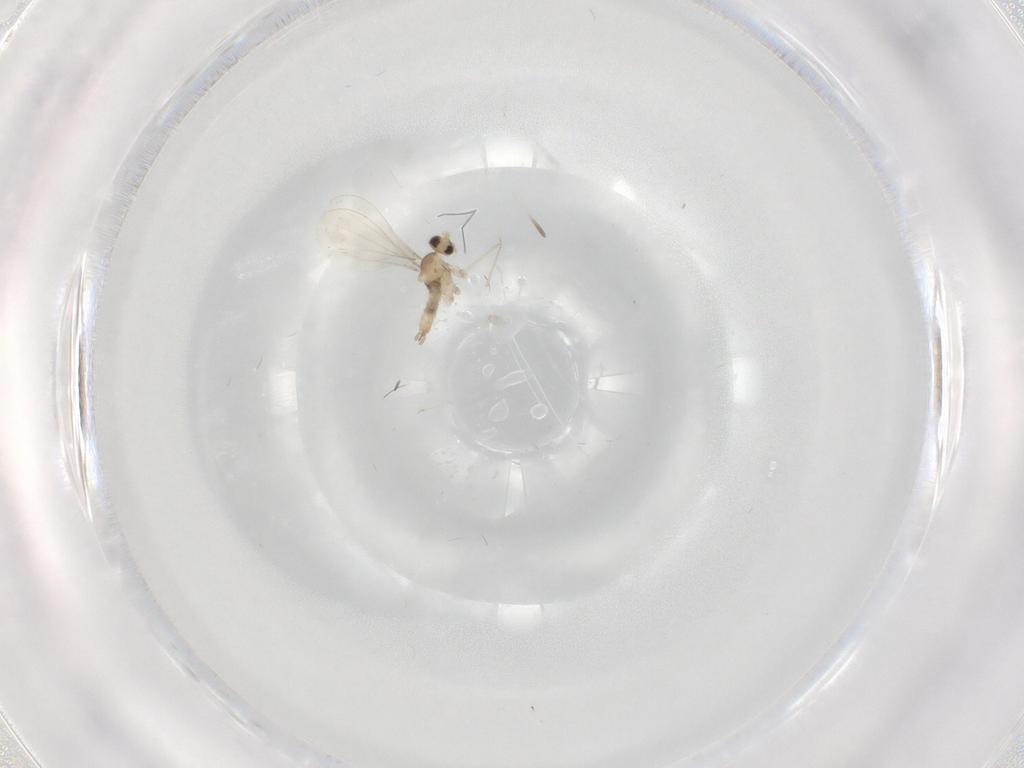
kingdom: Animalia
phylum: Arthropoda
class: Insecta
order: Diptera
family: Cecidomyiidae
